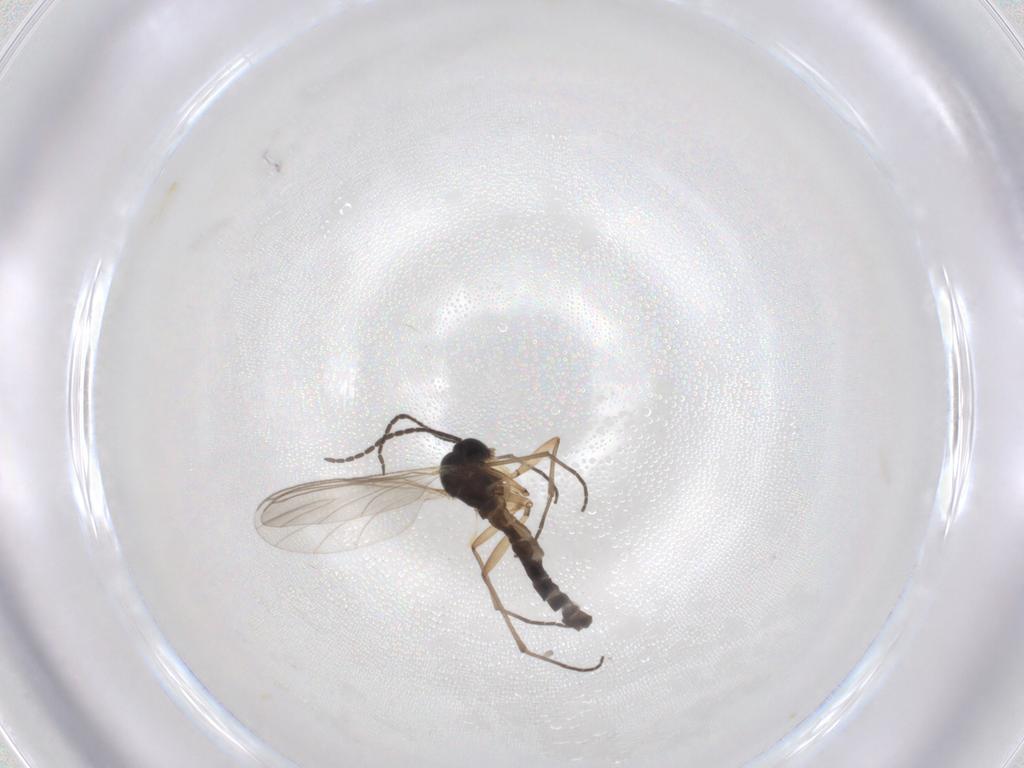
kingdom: Animalia
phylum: Arthropoda
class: Insecta
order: Diptera
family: Sciaridae
